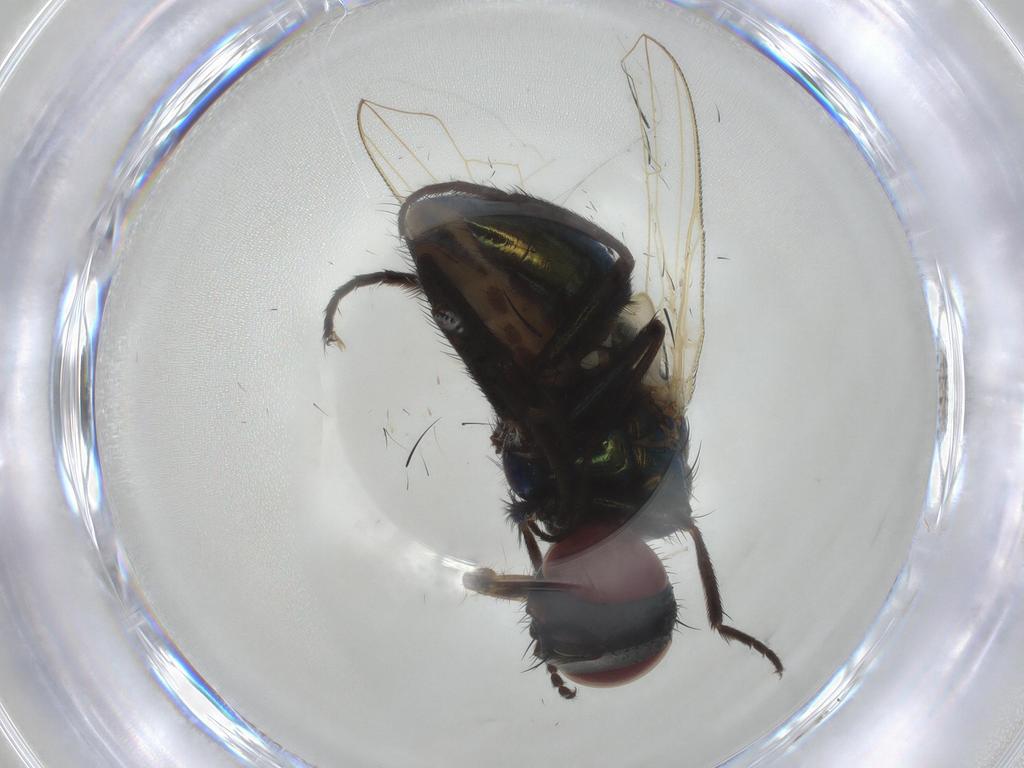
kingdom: Animalia
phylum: Arthropoda
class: Insecta
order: Diptera
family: Muscidae
